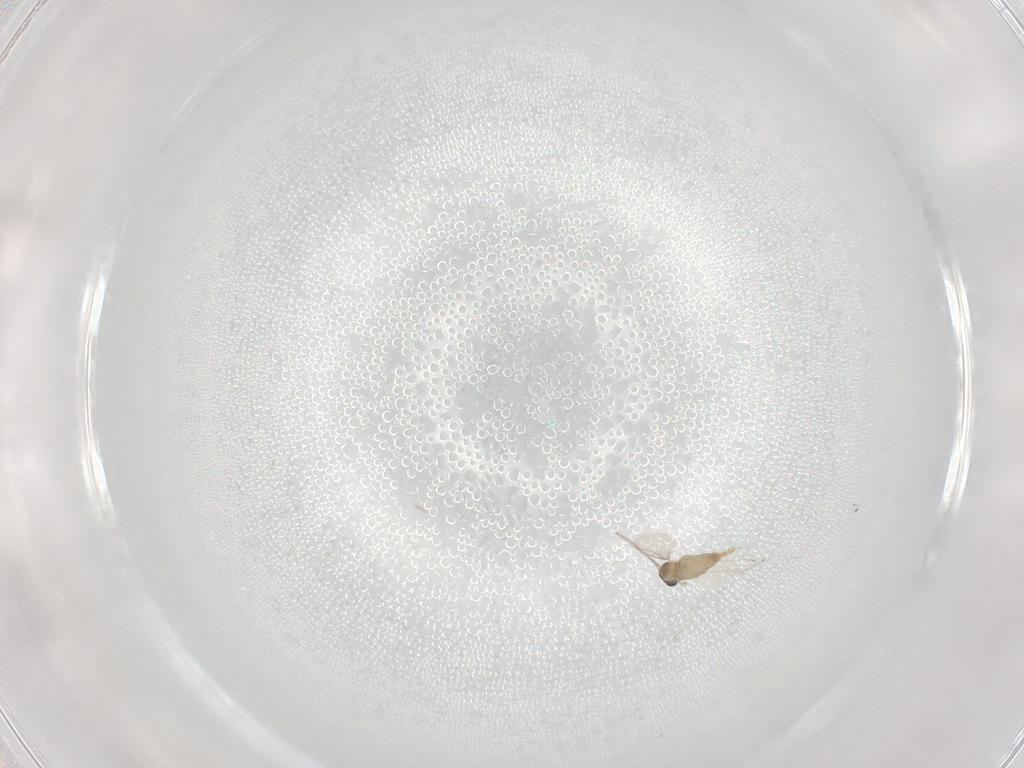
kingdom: Animalia
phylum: Arthropoda
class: Insecta
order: Diptera
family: Cecidomyiidae
